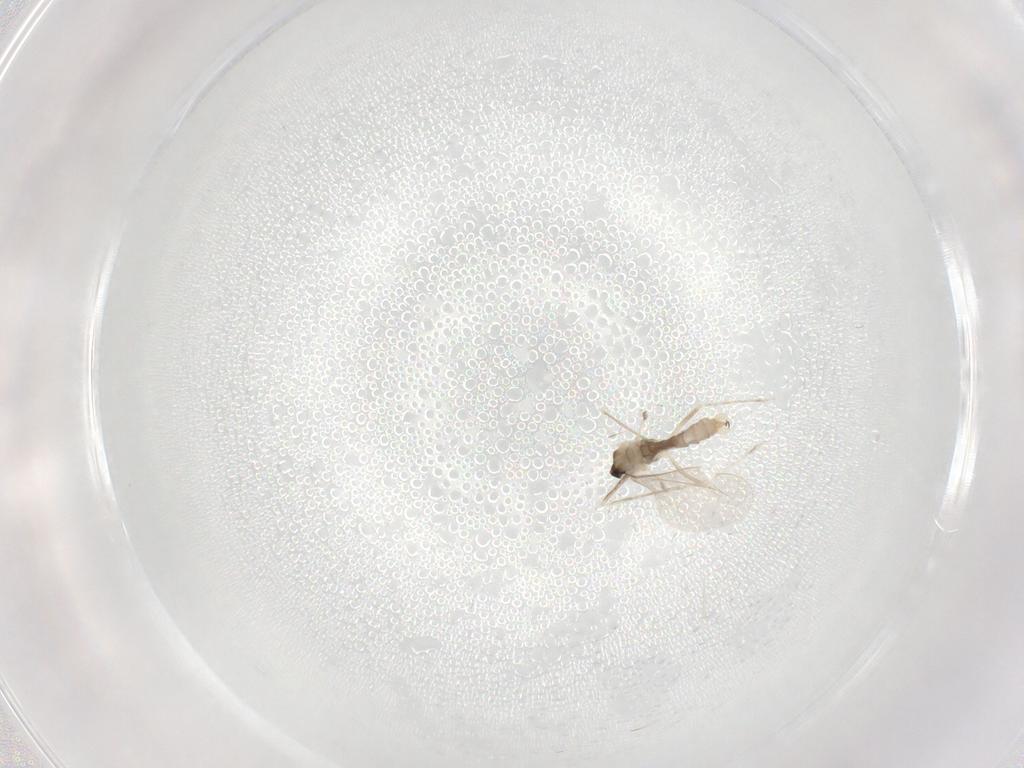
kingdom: Animalia
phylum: Arthropoda
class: Insecta
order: Diptera
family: Cecidomyiidae
